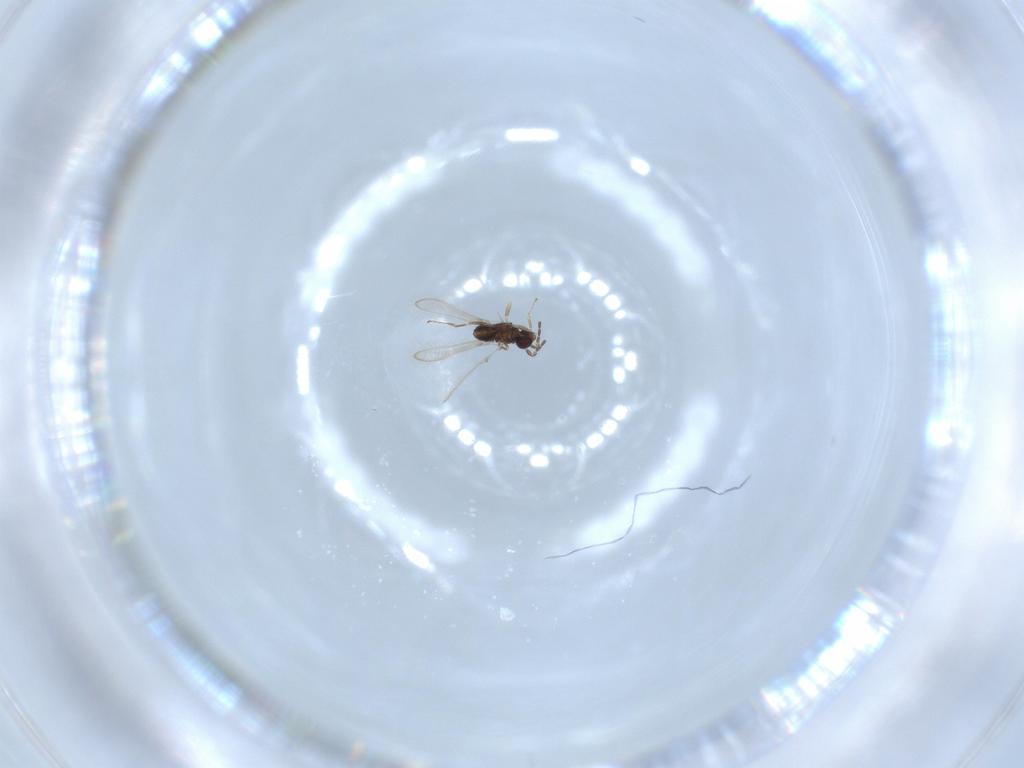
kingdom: Animalia
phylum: Arthropoda
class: Insecta
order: Hymenoptera
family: Mymaridae
